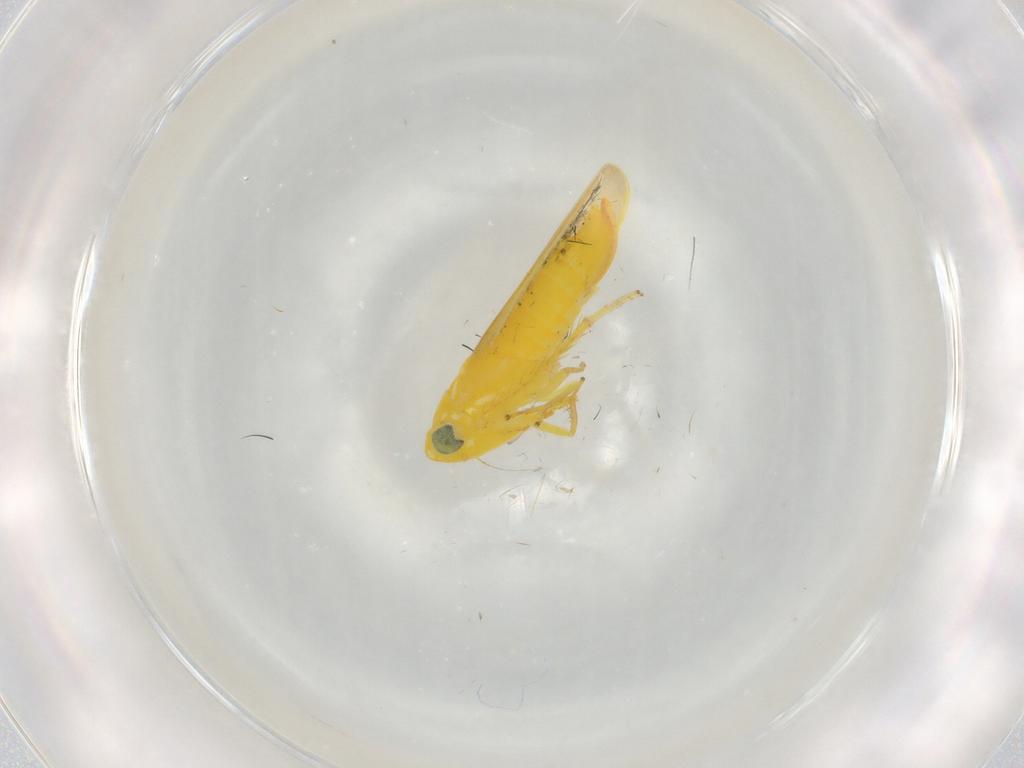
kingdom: Animalia
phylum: Arthropoda
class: Insecta
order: Hemiptera
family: Cicadellidae
